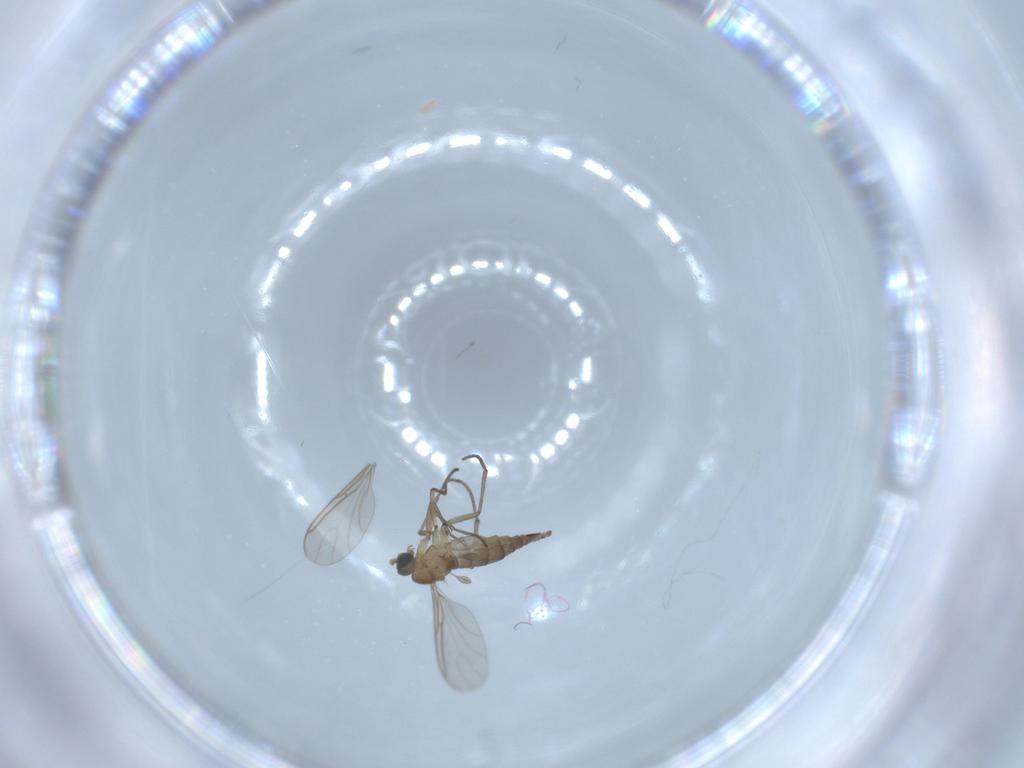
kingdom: Animalia
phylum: Arthropoda
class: Insecta
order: Diptera
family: Sciaridae
